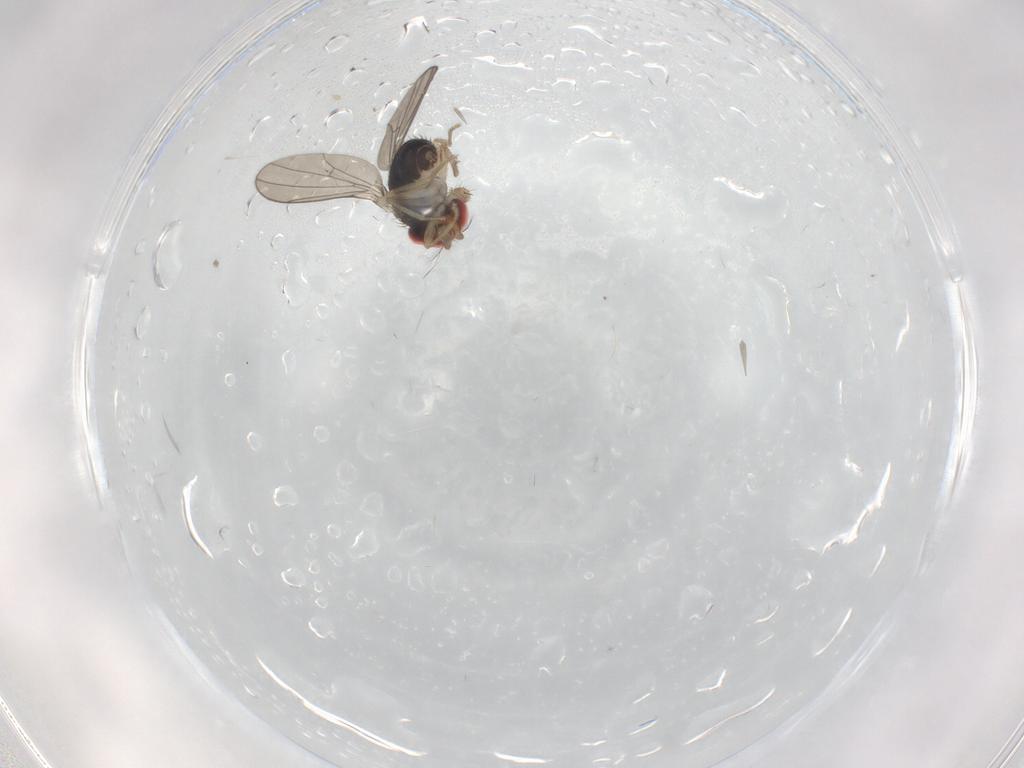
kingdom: Animalia
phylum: Arthropoda
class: Insecta
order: Diptera
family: Drosophilidae
